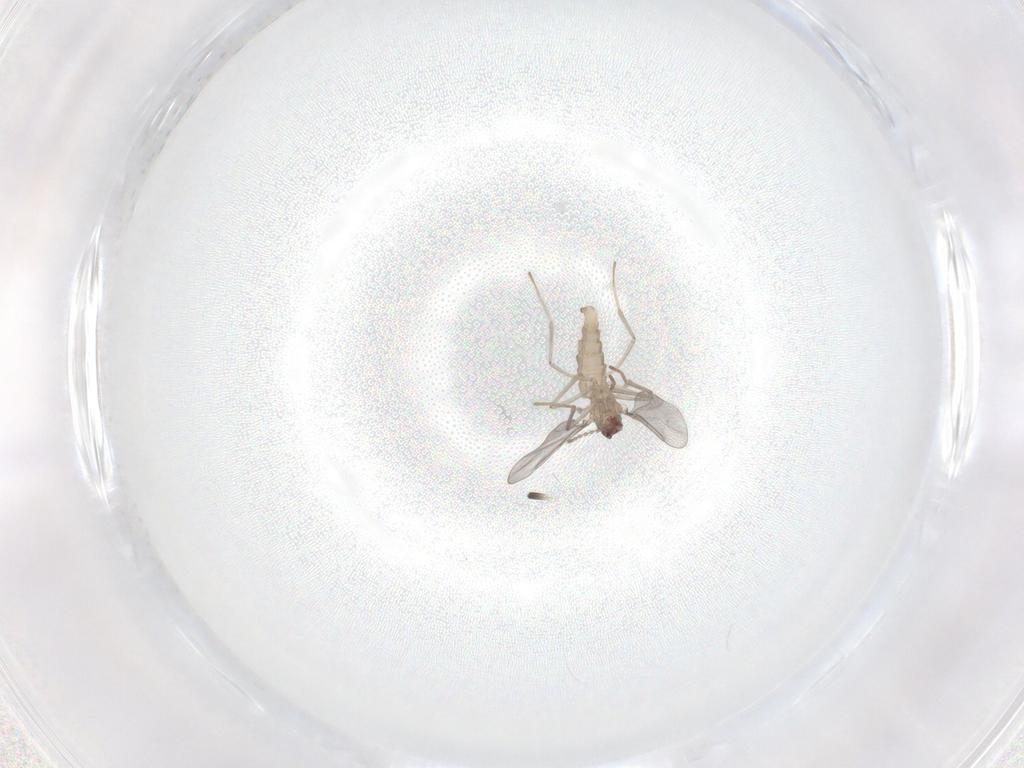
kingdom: Animalia
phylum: Arthropoda
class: Insecta
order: Diptera
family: Cecidomyiidae
